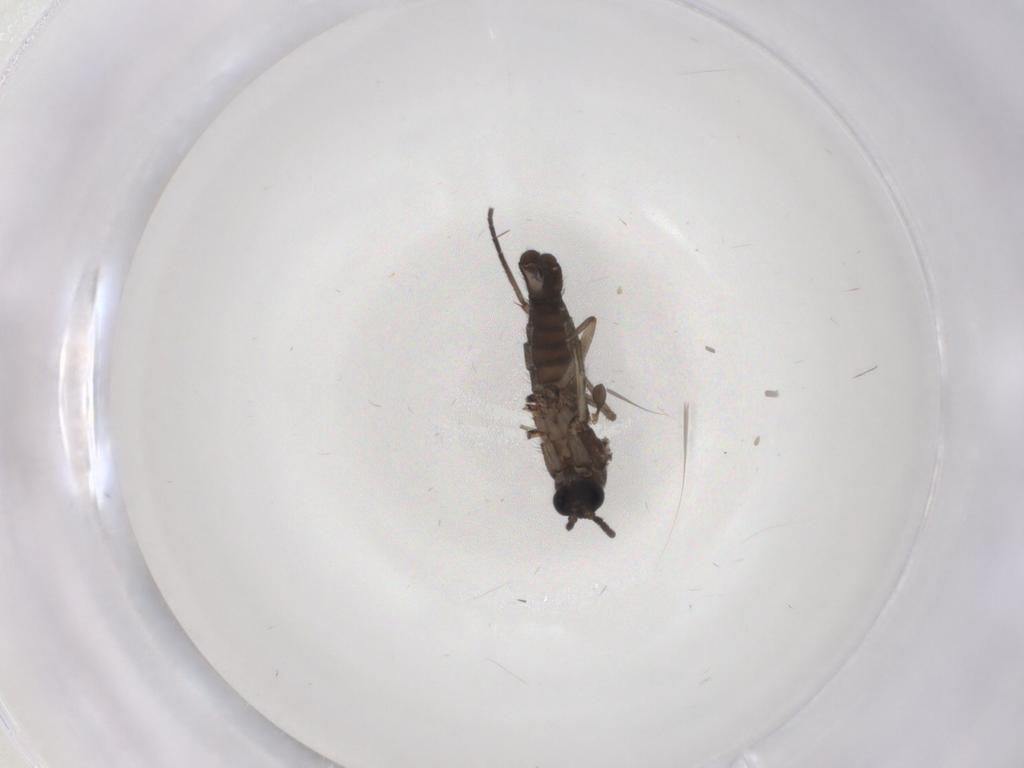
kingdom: Animalia
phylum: Arthropoda
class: Insecta
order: Diptera
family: Sciaridae
